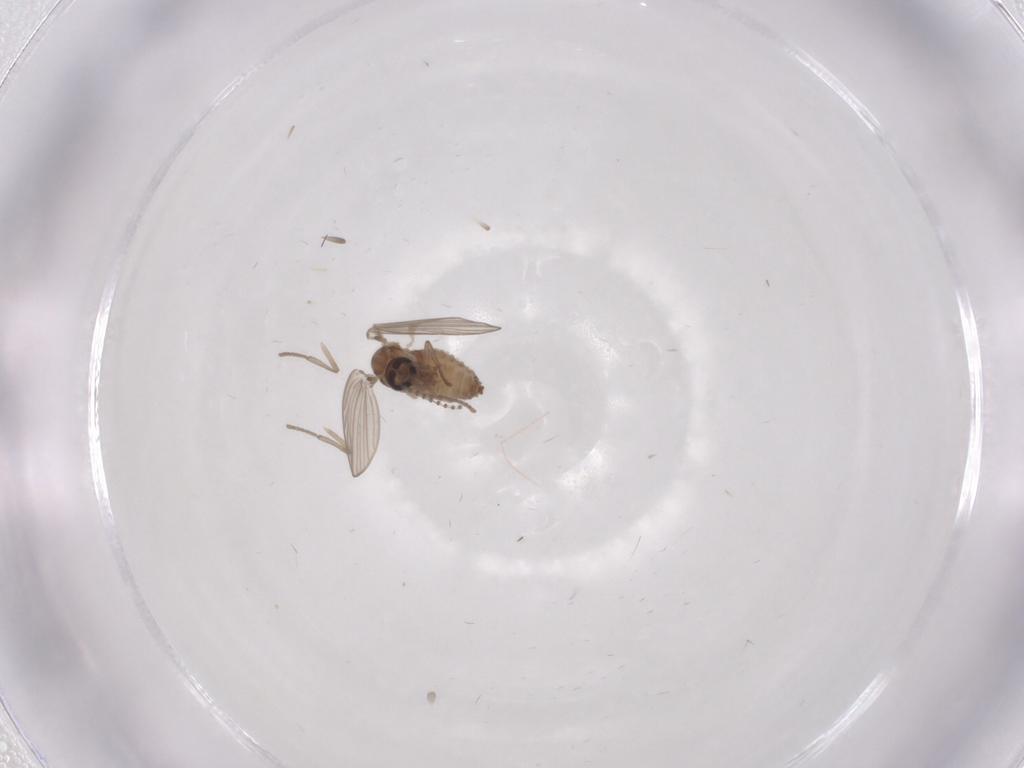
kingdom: Animalia
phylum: Arthropoda
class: Insecta
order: Diptera
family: Psychodidae
